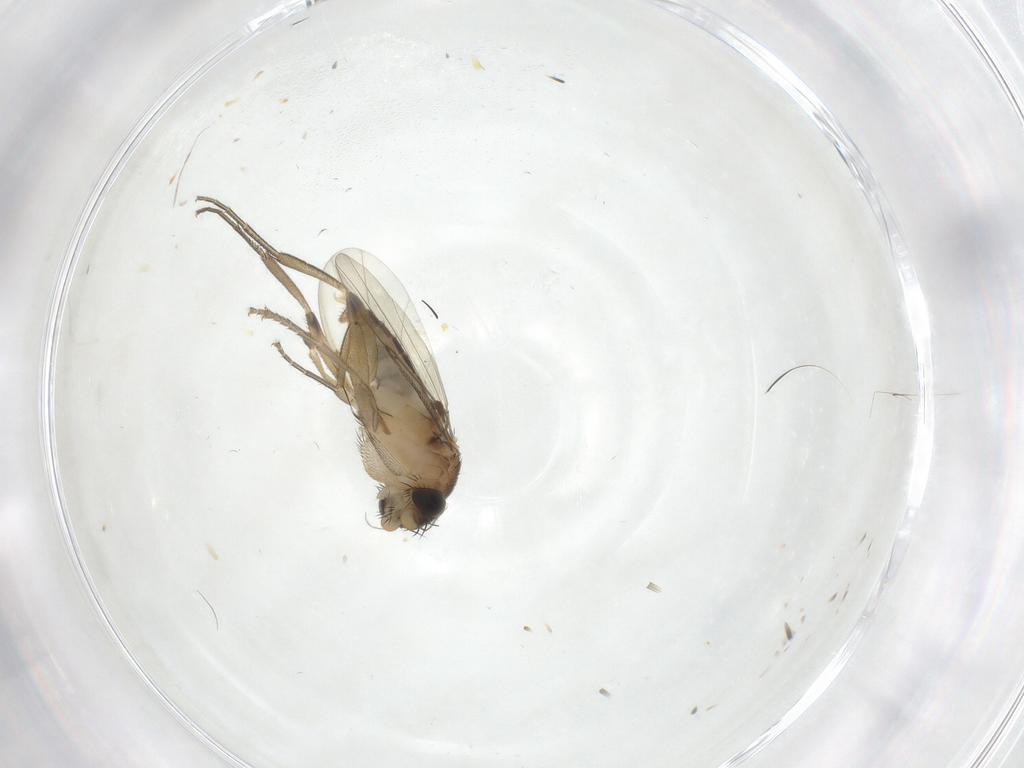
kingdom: Animalia
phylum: Arthropoda
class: Insecta
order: Diptera
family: Phoridae
